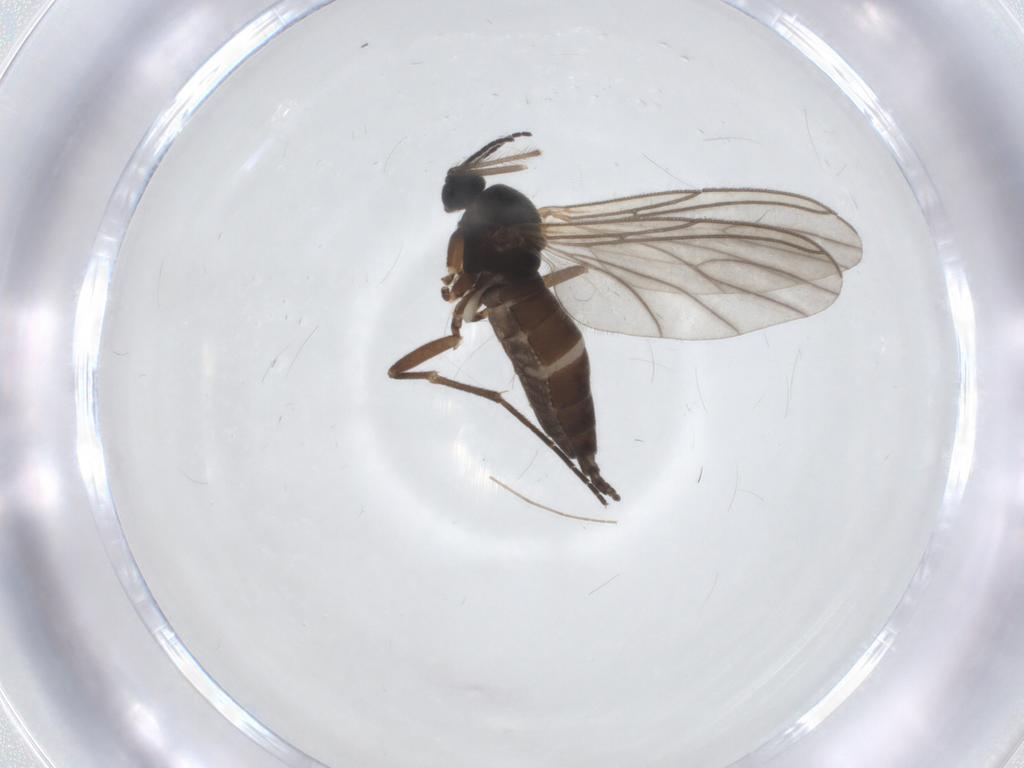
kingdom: Animalia
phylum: Arthropoda
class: Insecta
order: Diptera
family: Sciaridae
